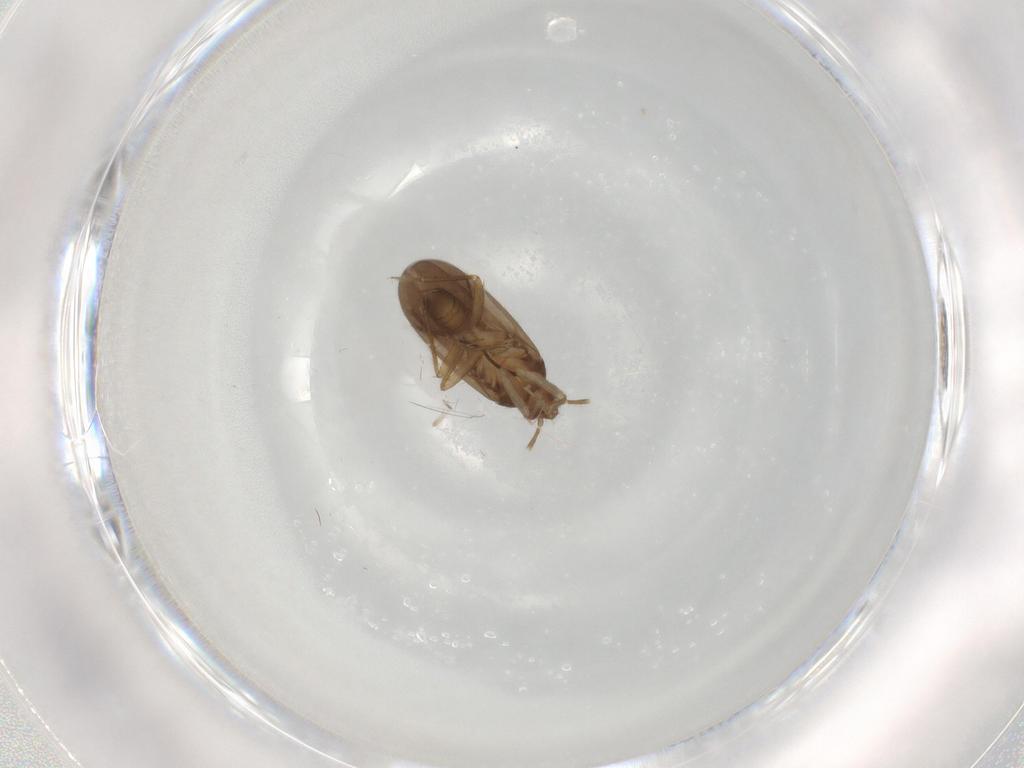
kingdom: Animalia
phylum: Arthropoda
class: Insecta
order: Hemiptera
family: Ceratocombidae
